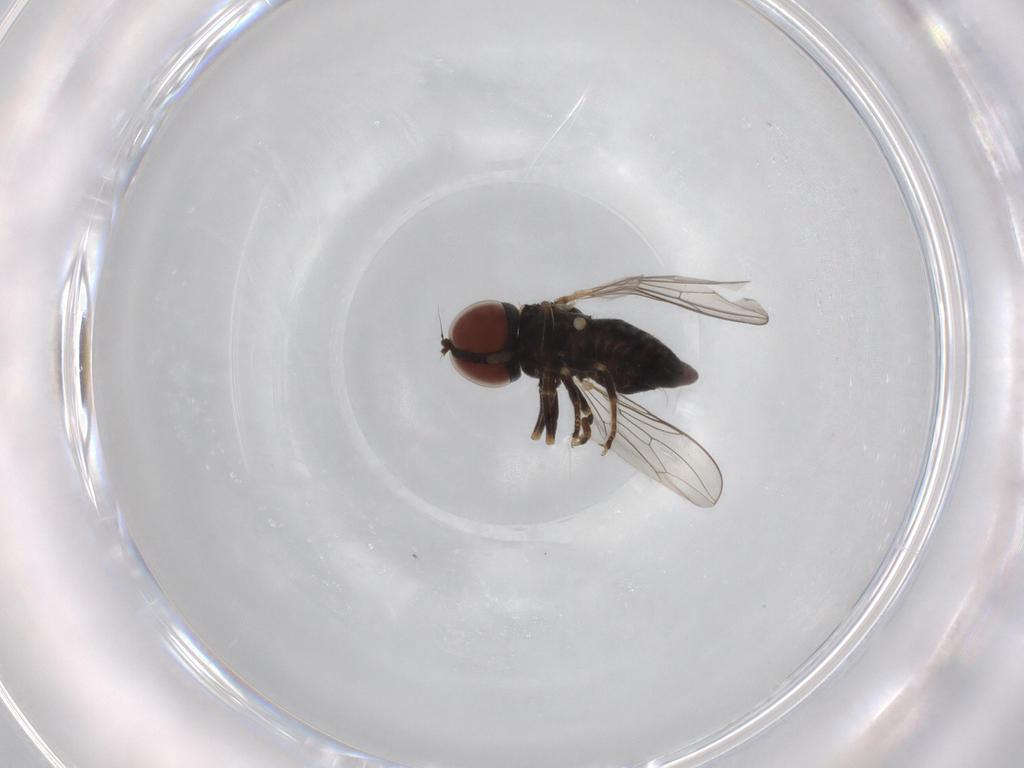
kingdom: Animalia
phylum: Arthropoda
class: Insecta
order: Diptera
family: Pipunculidae
